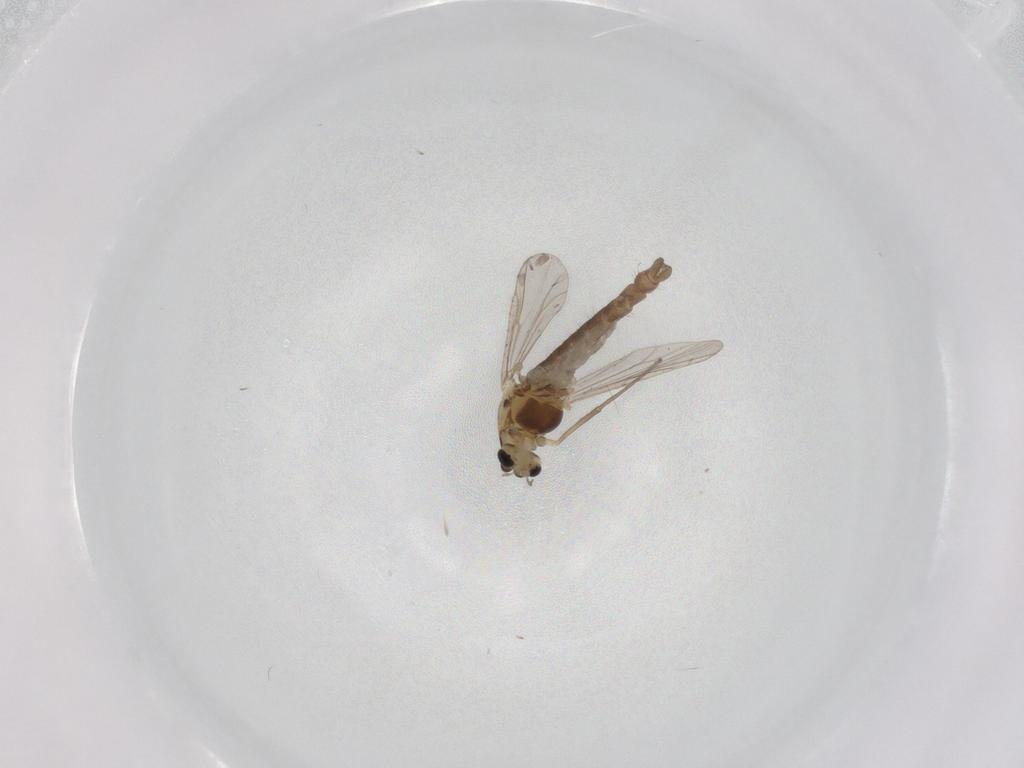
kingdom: Animalia
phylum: Arthropoda
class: Insecta
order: Diptera
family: Chironomidae
